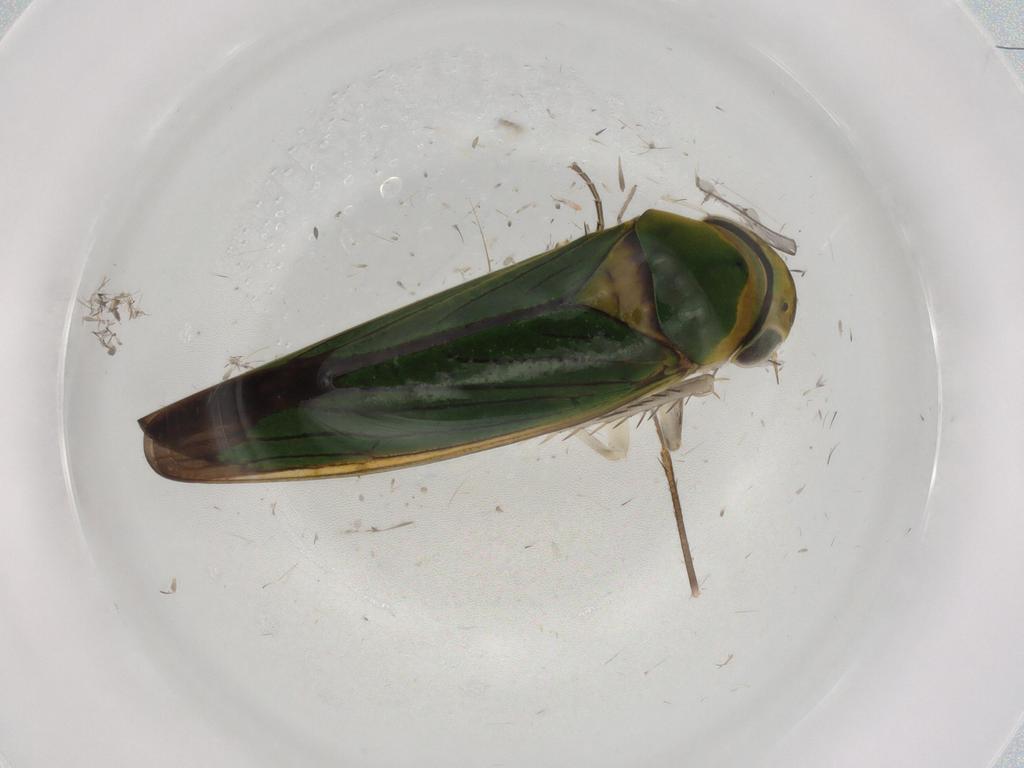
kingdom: Animalia
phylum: Arthropoda
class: Insecta
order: Hemiptera
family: Cicadellidae
